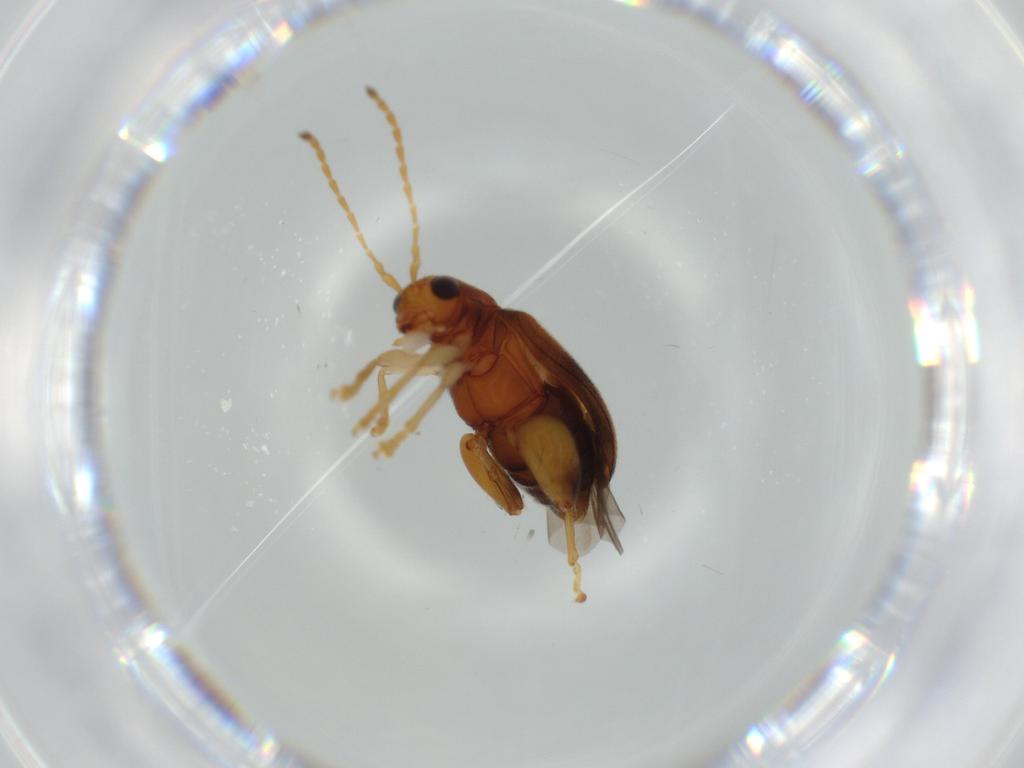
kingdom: Animalia
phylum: Arthropoda
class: Insecta
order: Coleoptera
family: Chrysomelidae
